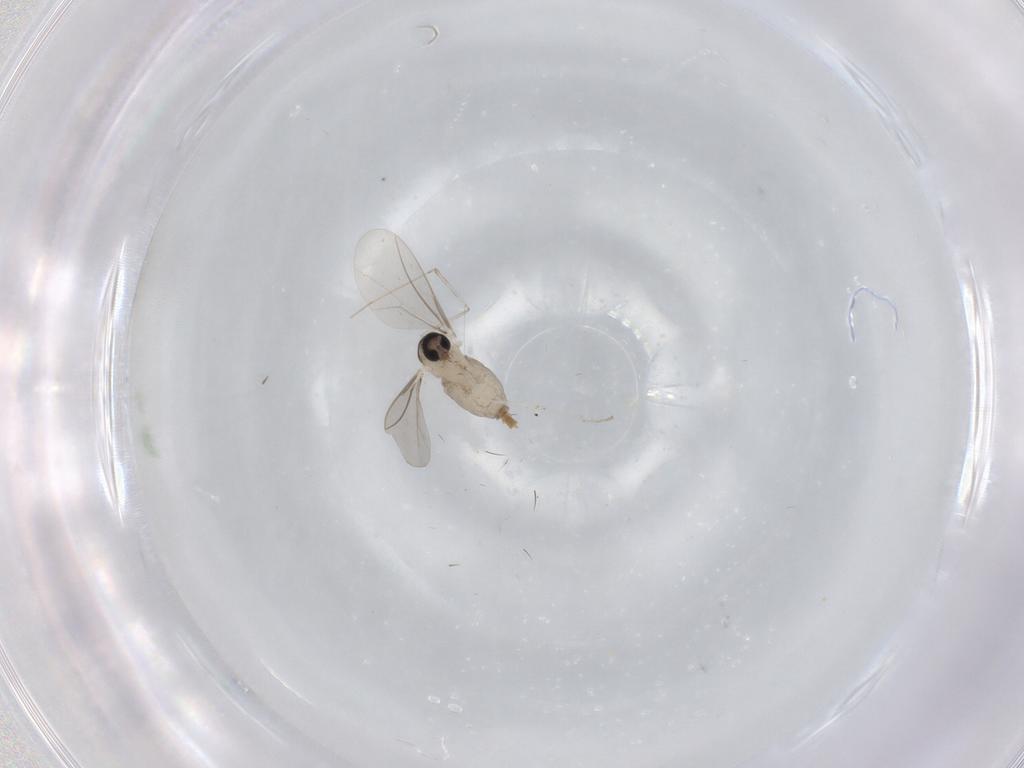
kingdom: Animalia
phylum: Arthropoda
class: Insecta
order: Diptera
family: Cecidomyiidae
